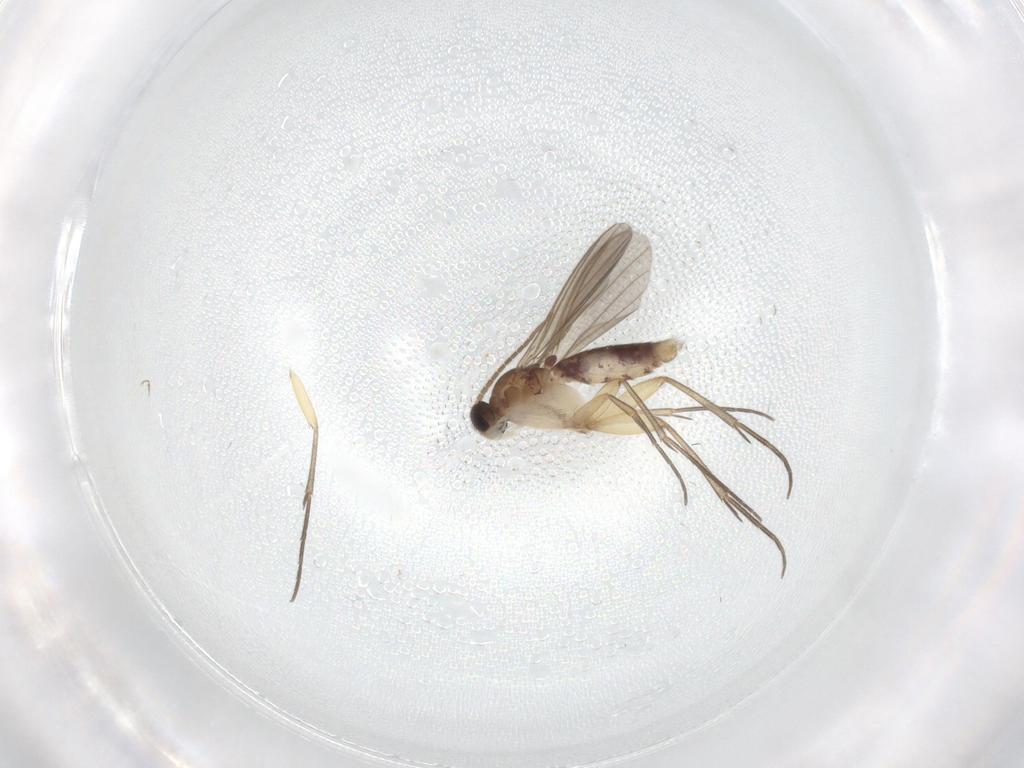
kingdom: Animalia
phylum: Arthropoda
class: Insecta
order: Diptera
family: Mycetophilidae
